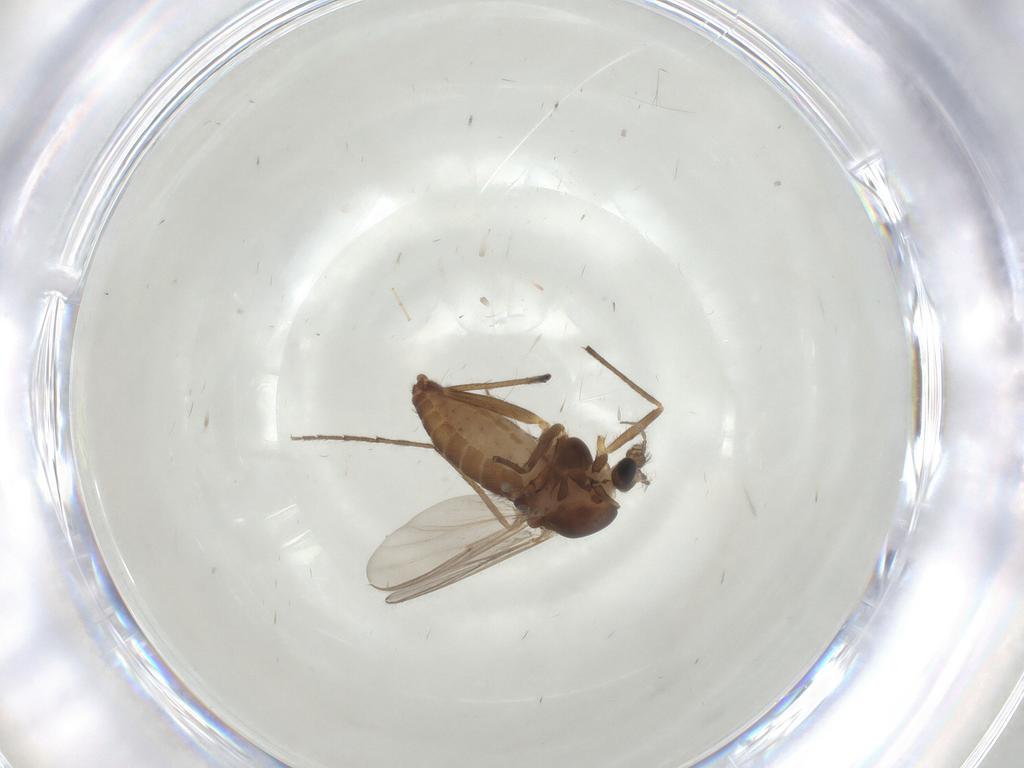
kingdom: Animalia
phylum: Arthropoda
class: Insecta
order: Diptera
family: Chironomidae
